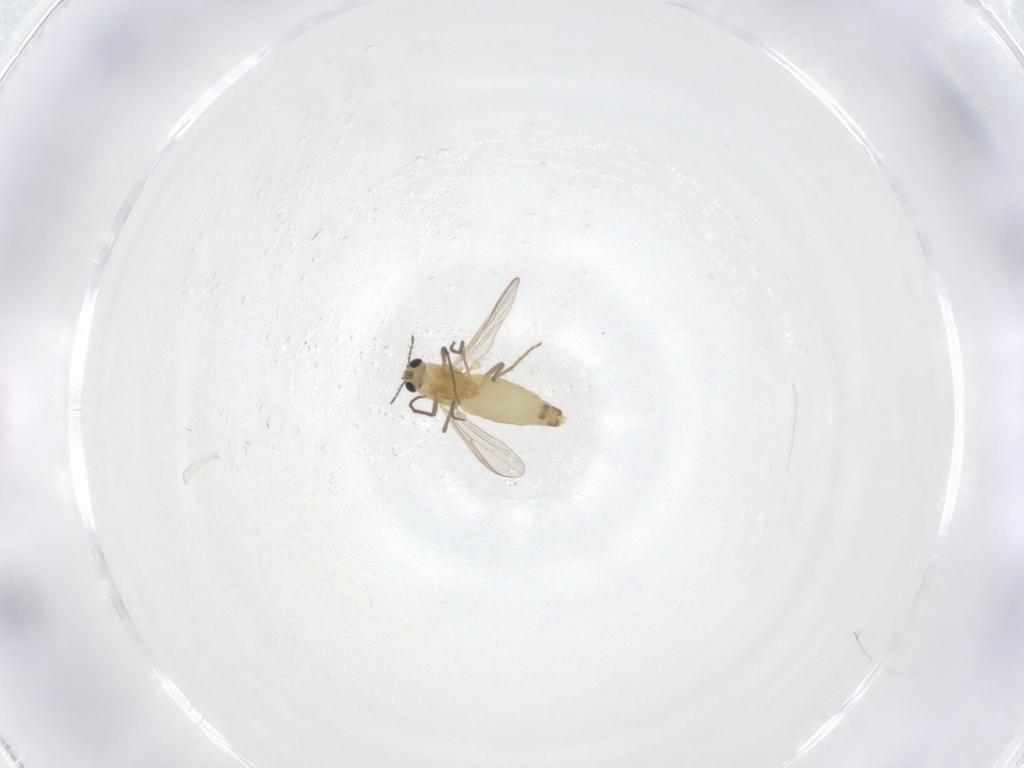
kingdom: Animalia
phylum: Arthropoda
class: Insecta
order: Diptera
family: Chironomidae
